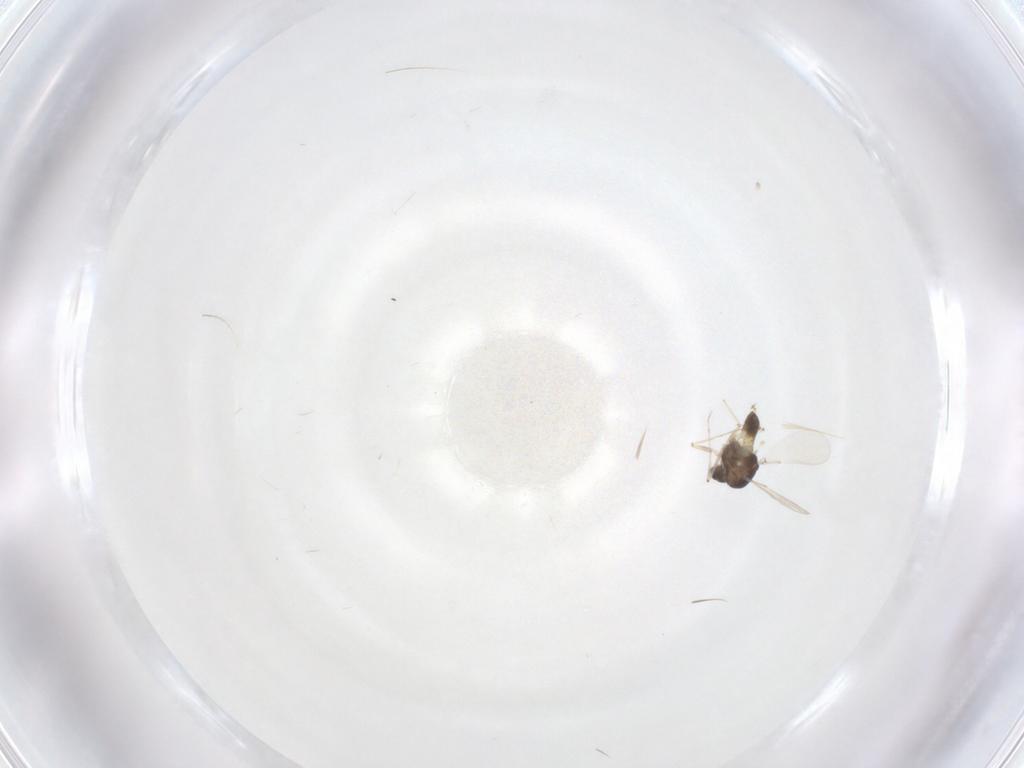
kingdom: Animalia
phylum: Arthropoda
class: Insecta
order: Diptera
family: Chironomidae
